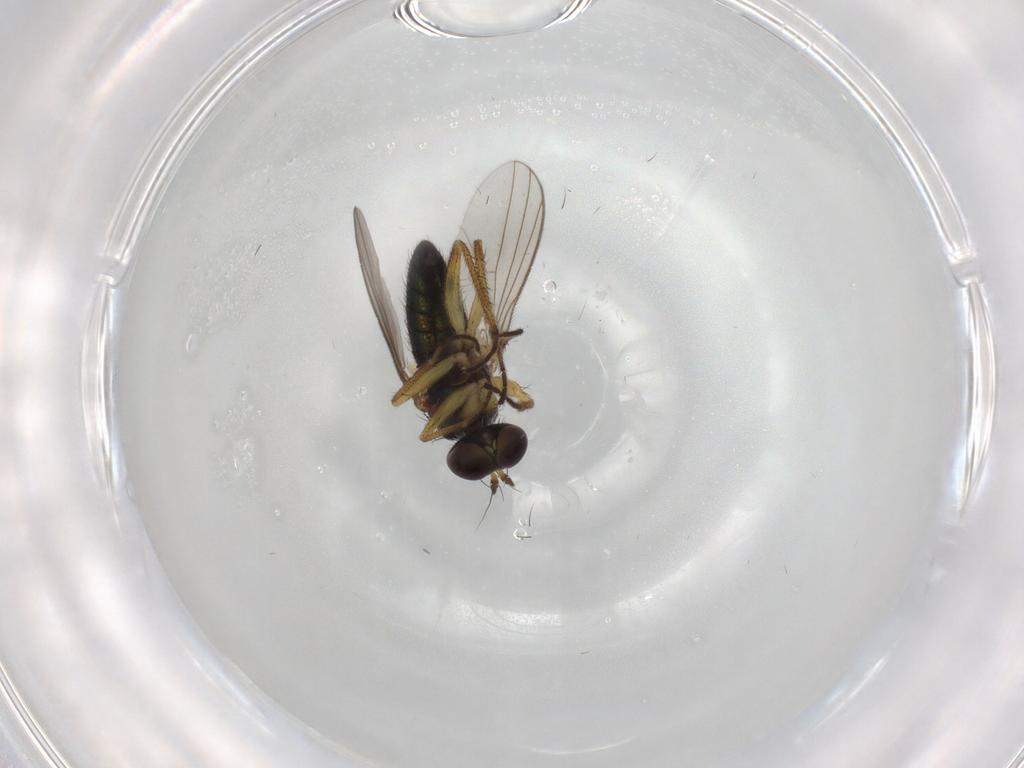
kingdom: Animalia
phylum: Arthropoda
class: Insecta
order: Diptera
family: Dolichopodidae
